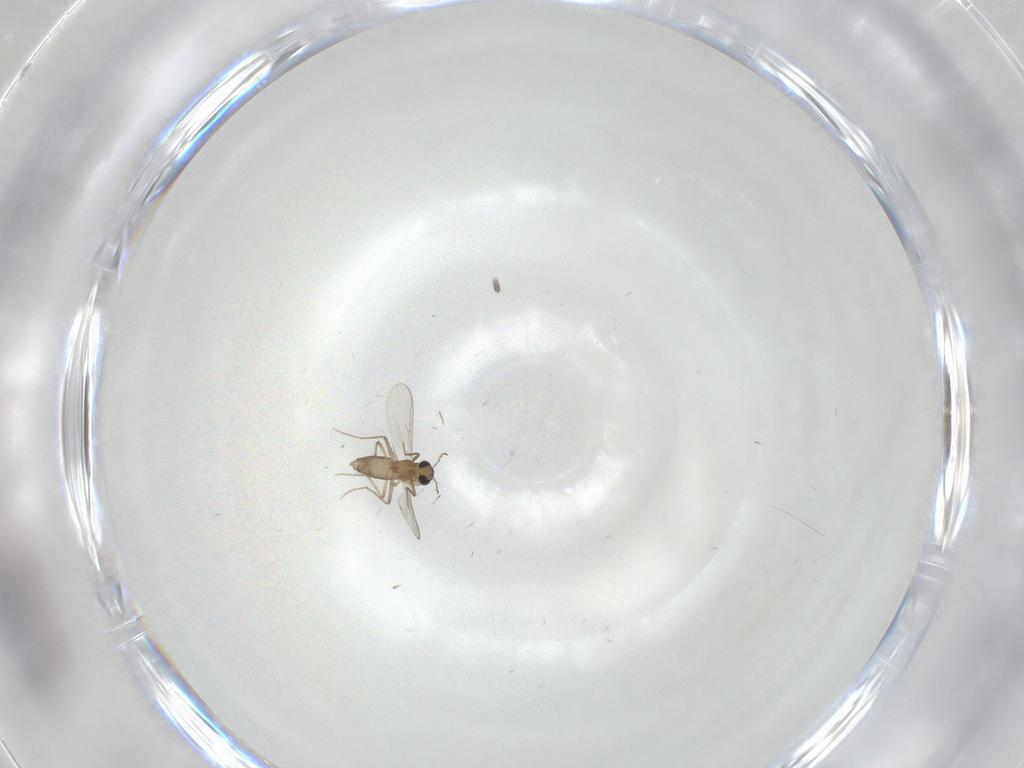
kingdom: Animalia
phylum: Arthropoda
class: Insecta
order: Diptera
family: Chironomidae
